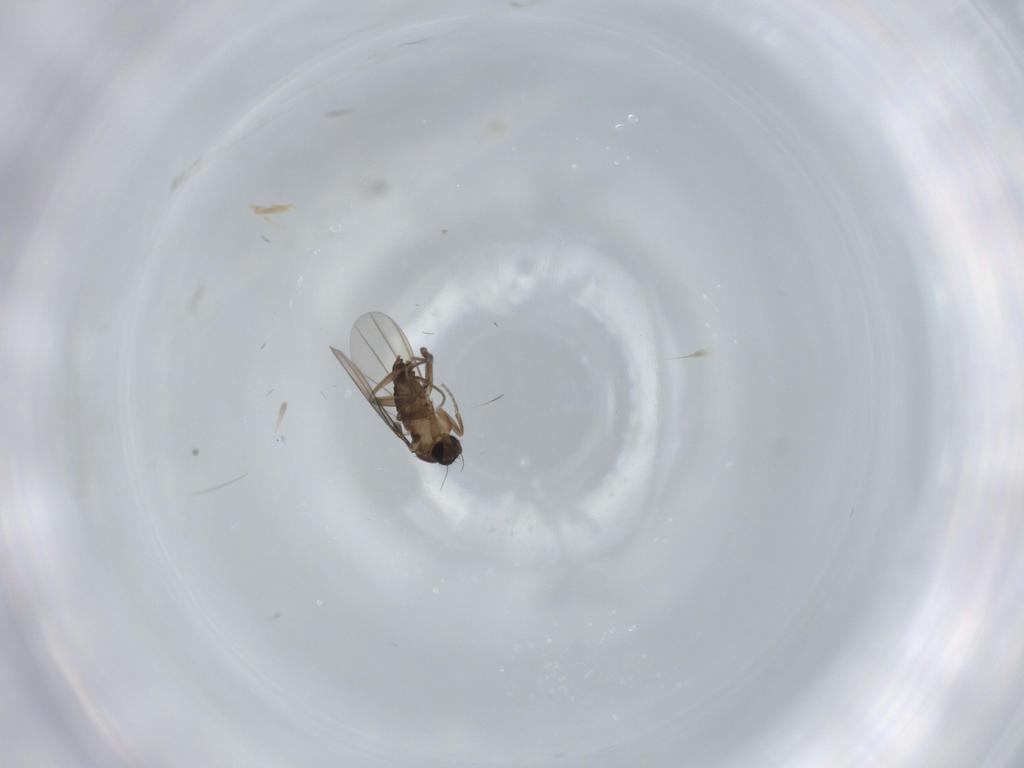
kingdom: Animalia
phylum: Arthropoda
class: Insecta
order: Diptera
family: Phoridae
